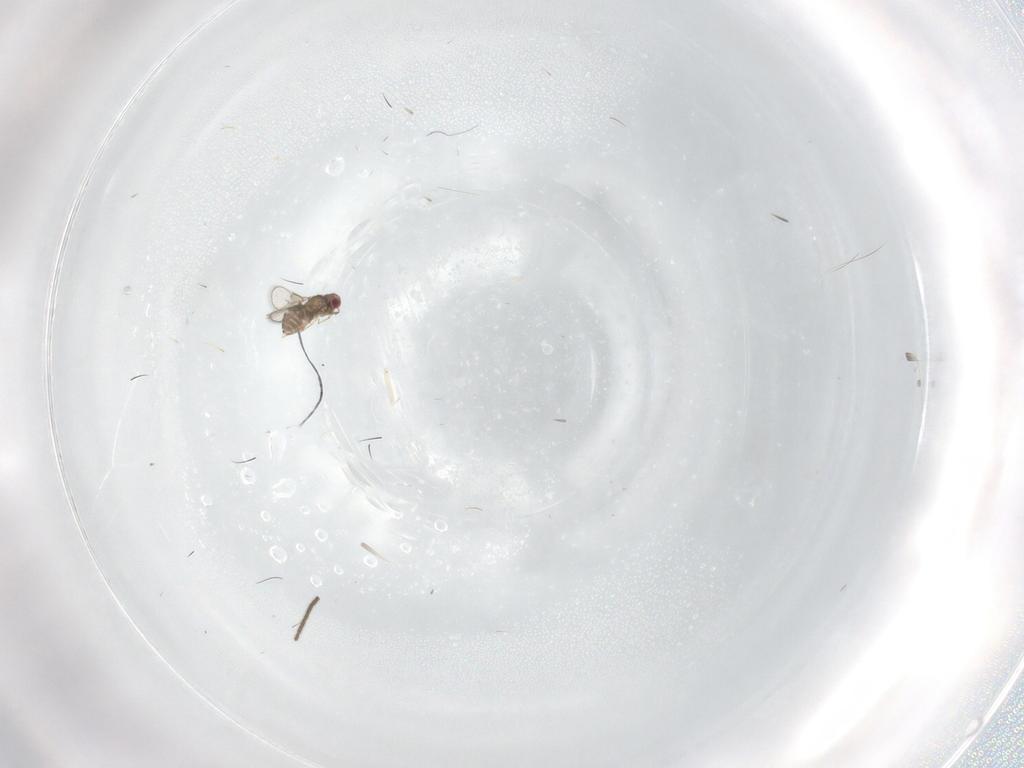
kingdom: Animalia
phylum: Arthropoda
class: Insecta
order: Hymenoptera
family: Trichogrammatidae
